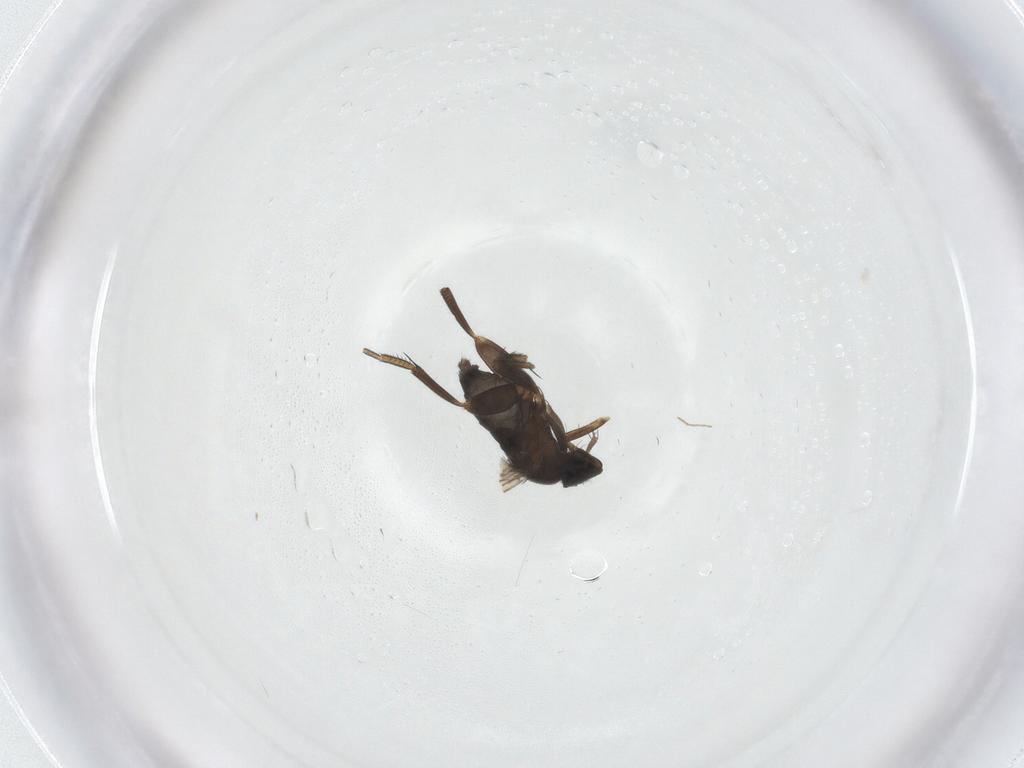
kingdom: Animalia
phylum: Arthropoda
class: Insecta
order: Diptera
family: Phoridae
